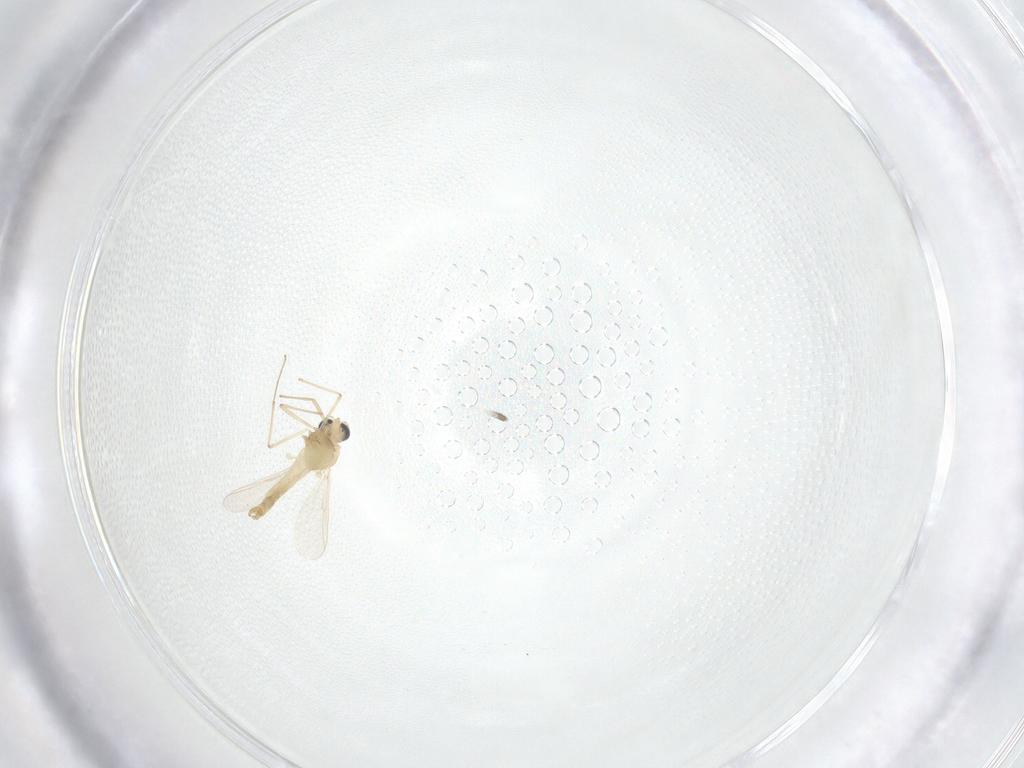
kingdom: Animalia
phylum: Arthropoda
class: Insecta
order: Diptera
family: Chironomidae
